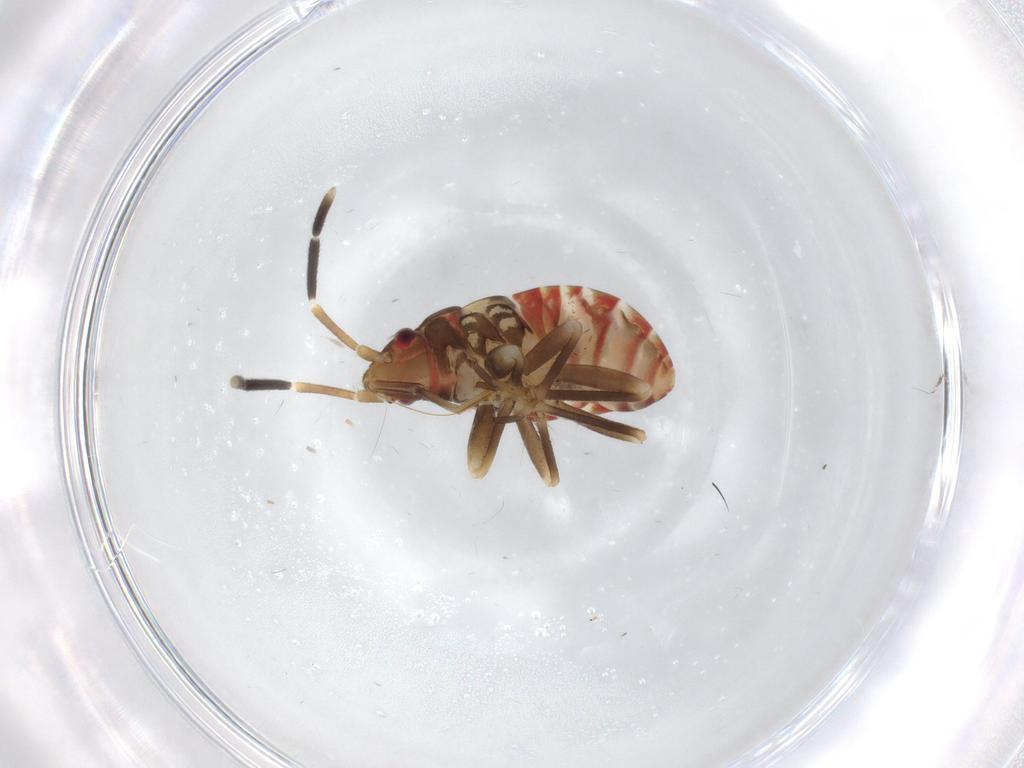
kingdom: Animalia
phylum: Arthropoda
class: Insecta
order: Hemiptera
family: Rhyparochromidae
